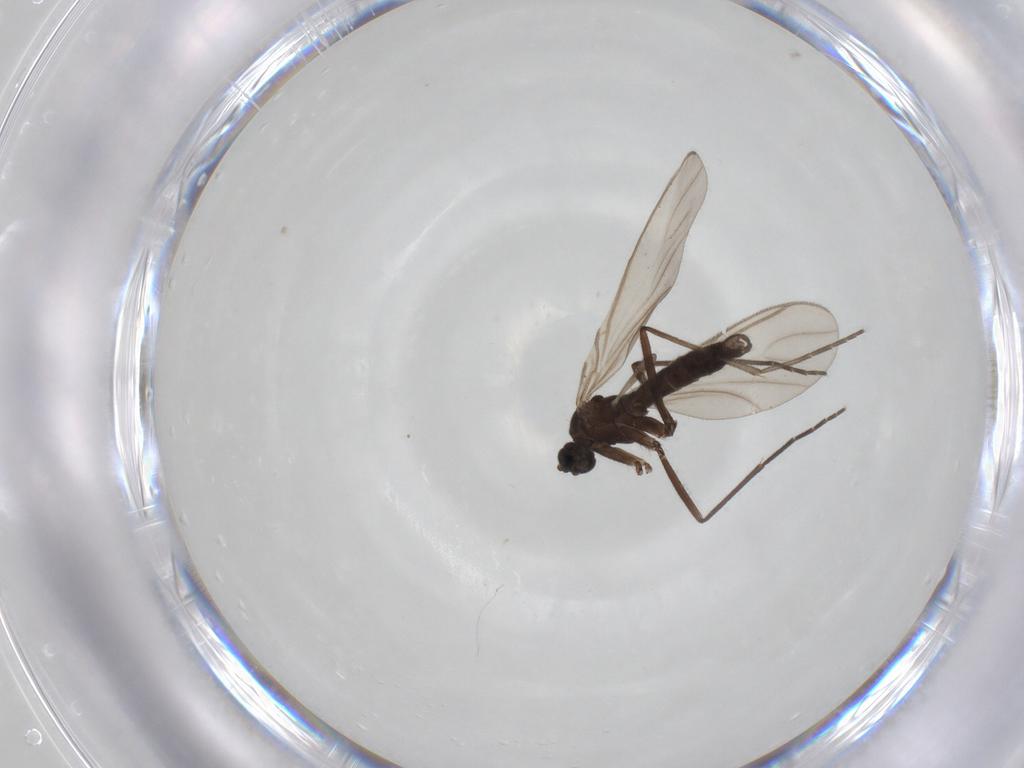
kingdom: Animalia
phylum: Arthropoda
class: Insecta
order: Diptera
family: Sciaridae
